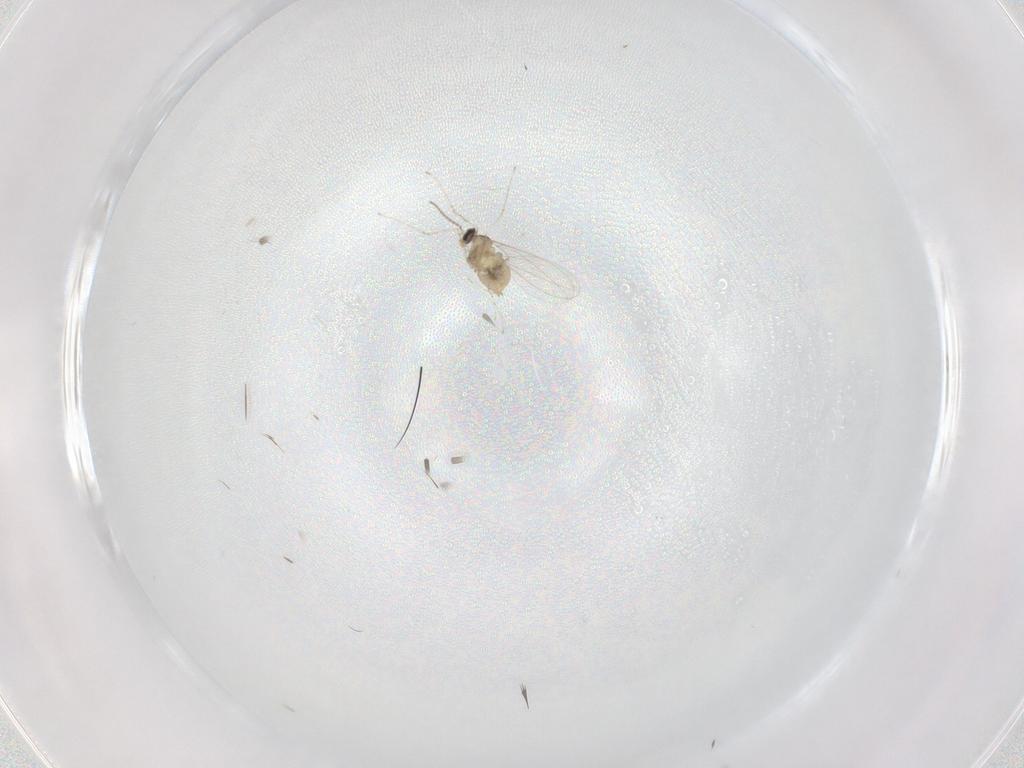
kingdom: Animalia
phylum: Arthropoda
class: Insecta
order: Diptera
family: Cecidomyiidae
